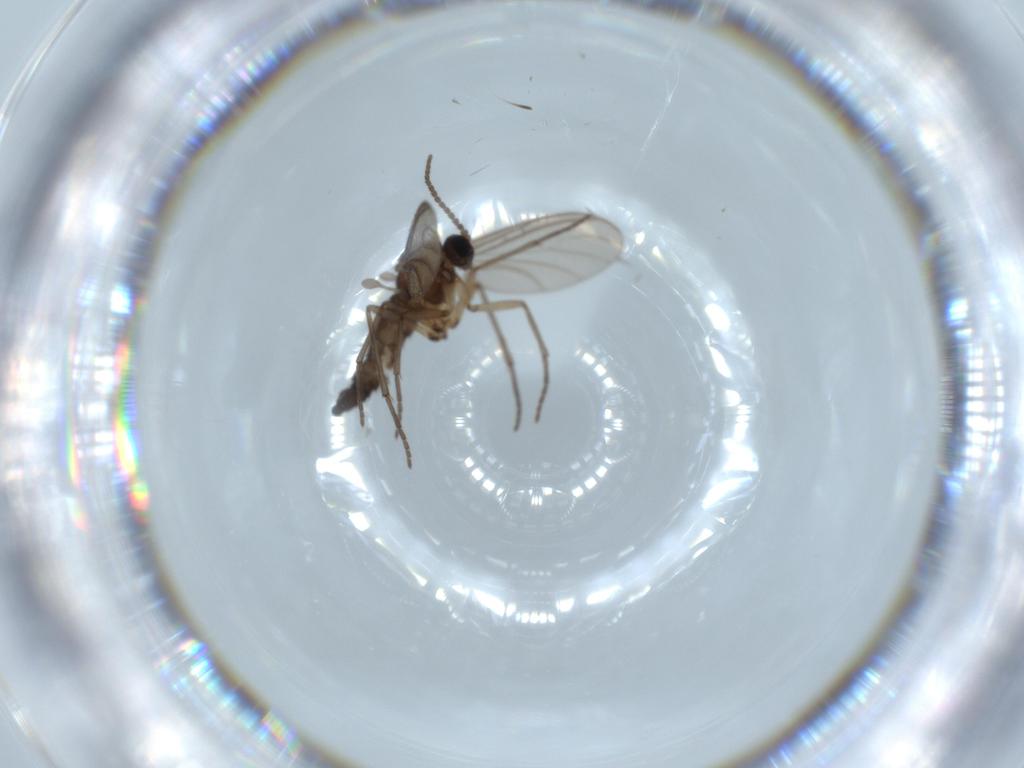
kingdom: Animalia
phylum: Arthropoda
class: Insecta
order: Diptera
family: Sciaridae
